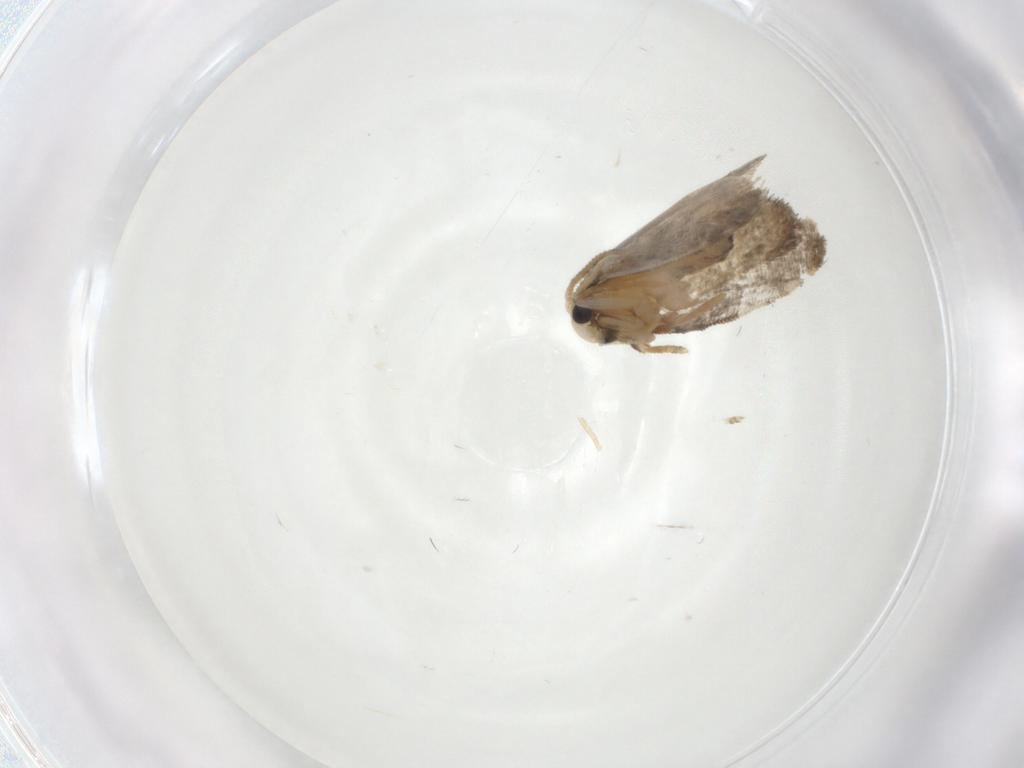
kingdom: Animalia
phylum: Arthropoda
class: Insecta
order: Lepidoptera
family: Psychidae
